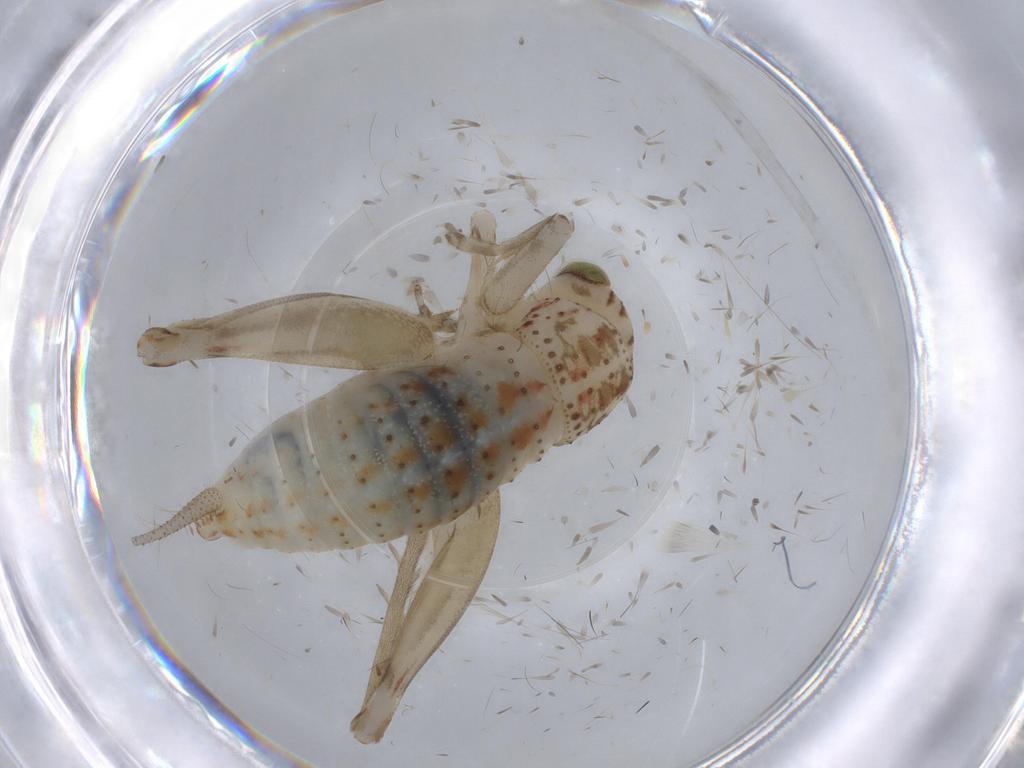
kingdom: Animalia
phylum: Arthropoda
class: Insecta
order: Orthoptera
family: Trigonidiidae
